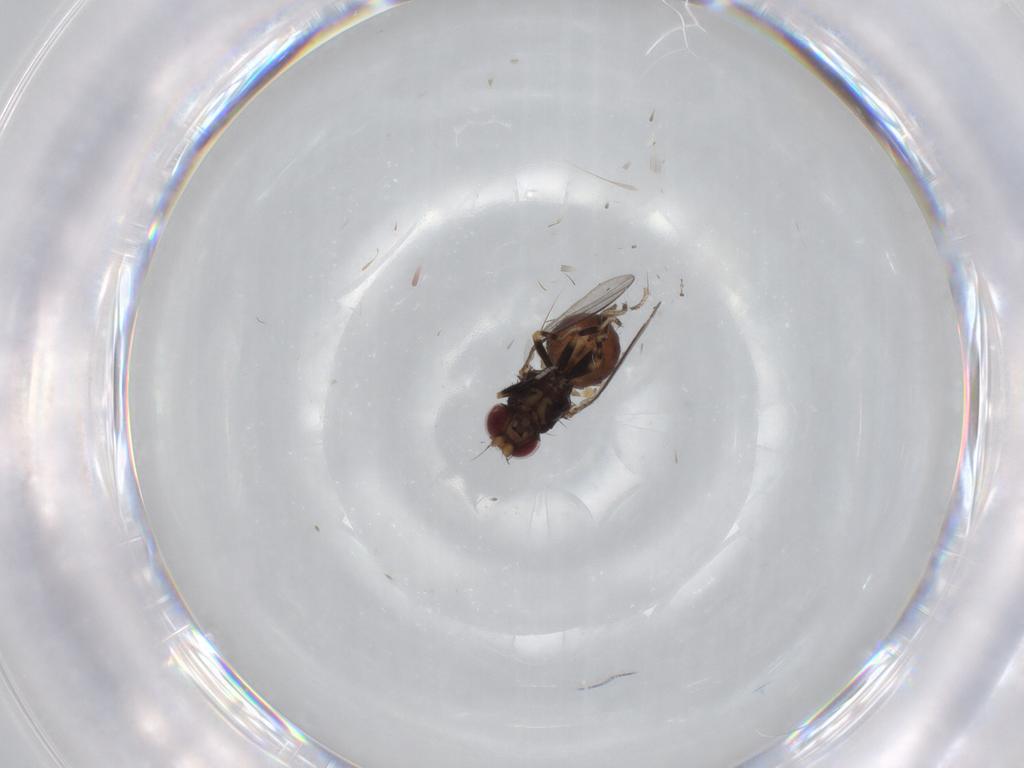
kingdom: Animalia
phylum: Arthropoda
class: Insecta
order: Diptera
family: Chloropidae
